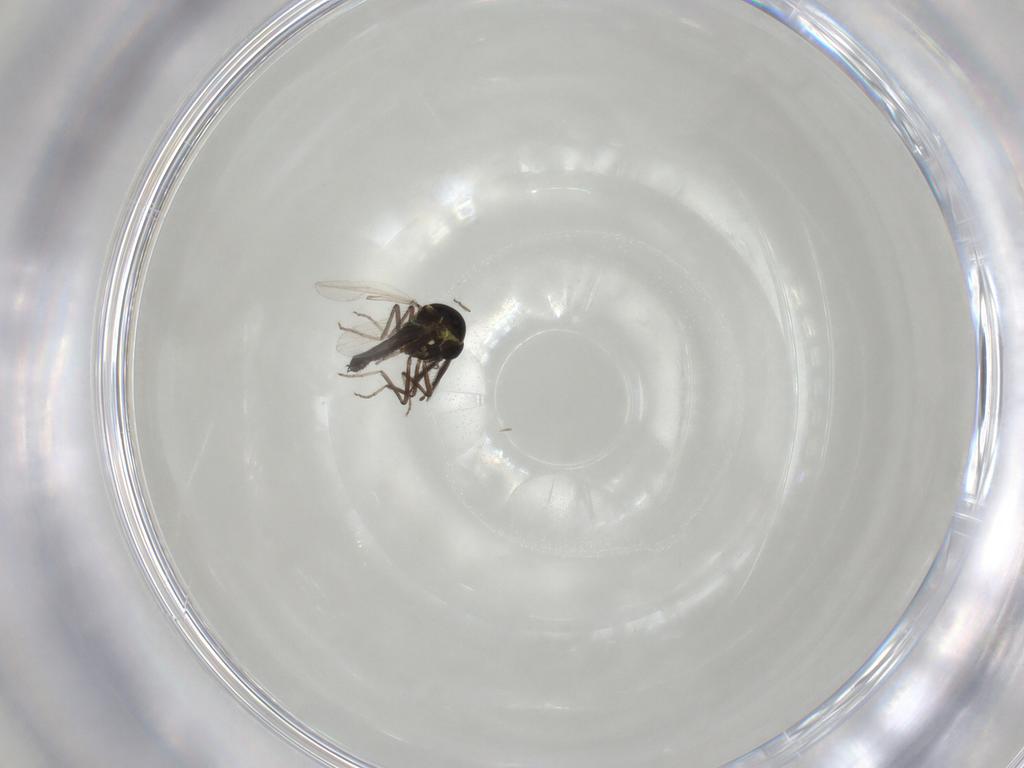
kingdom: Animalia
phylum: Arthropoda
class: Insecta
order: Diptera
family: Ceratopogonidae
